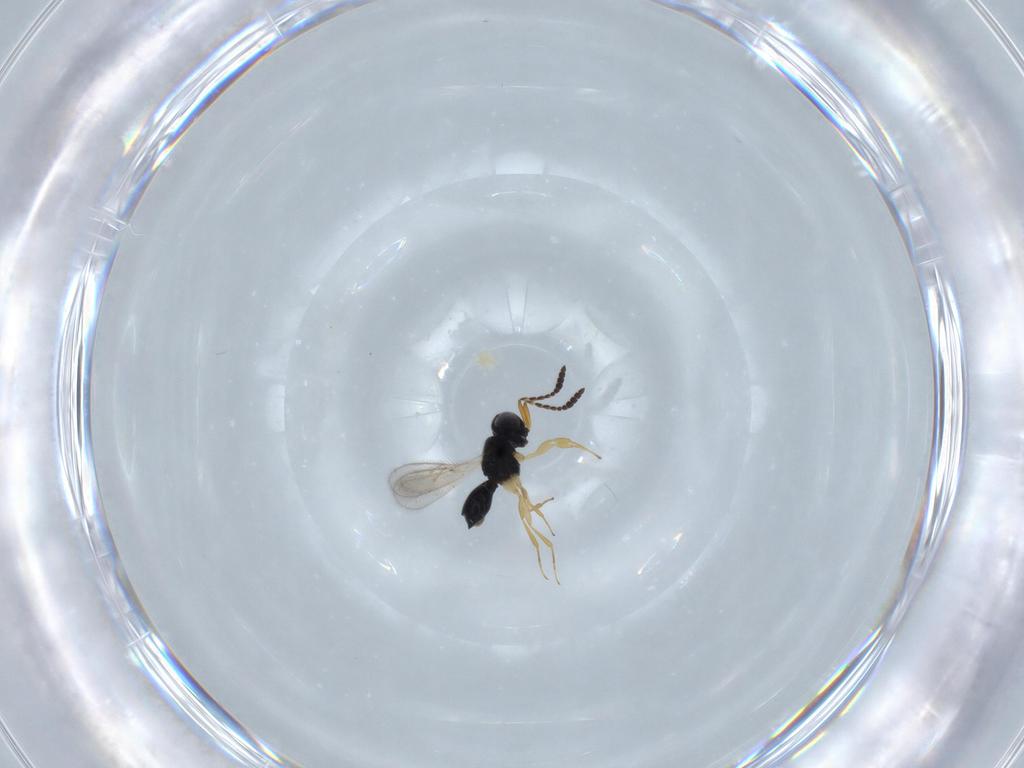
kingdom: Animalia
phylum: Arthropoda
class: Insecta
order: Hymenoptera
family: Scelionidae
